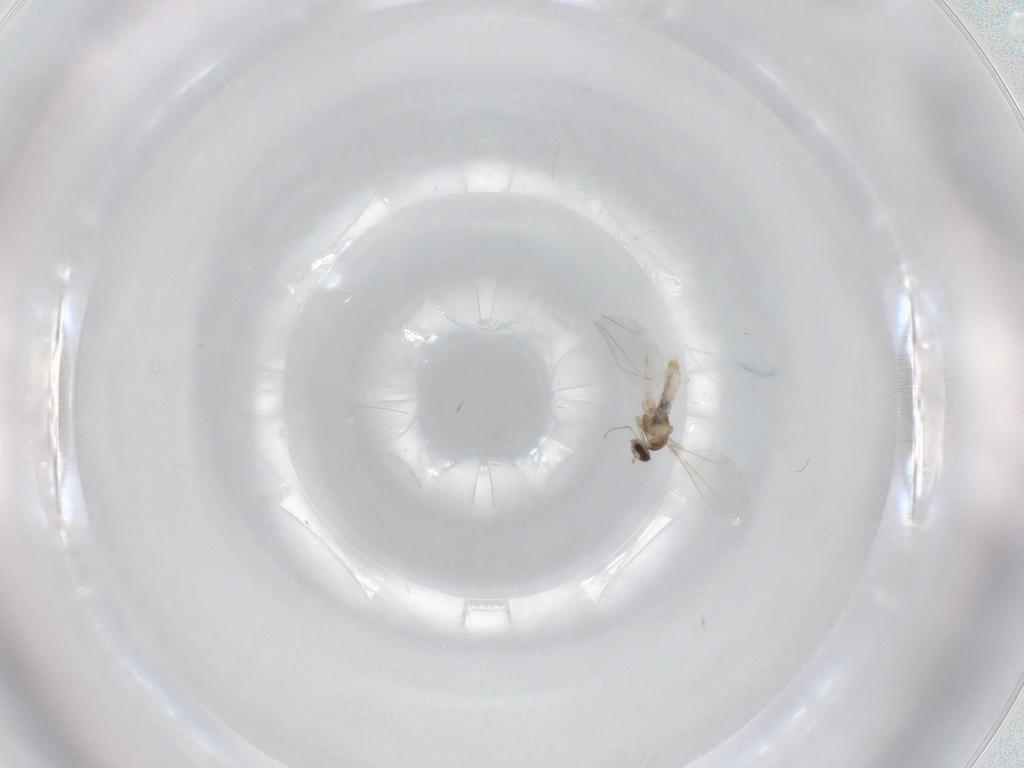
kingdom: Animalia
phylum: Arthropoda
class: Insecta
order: Diptera
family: Cecidomyiidae
